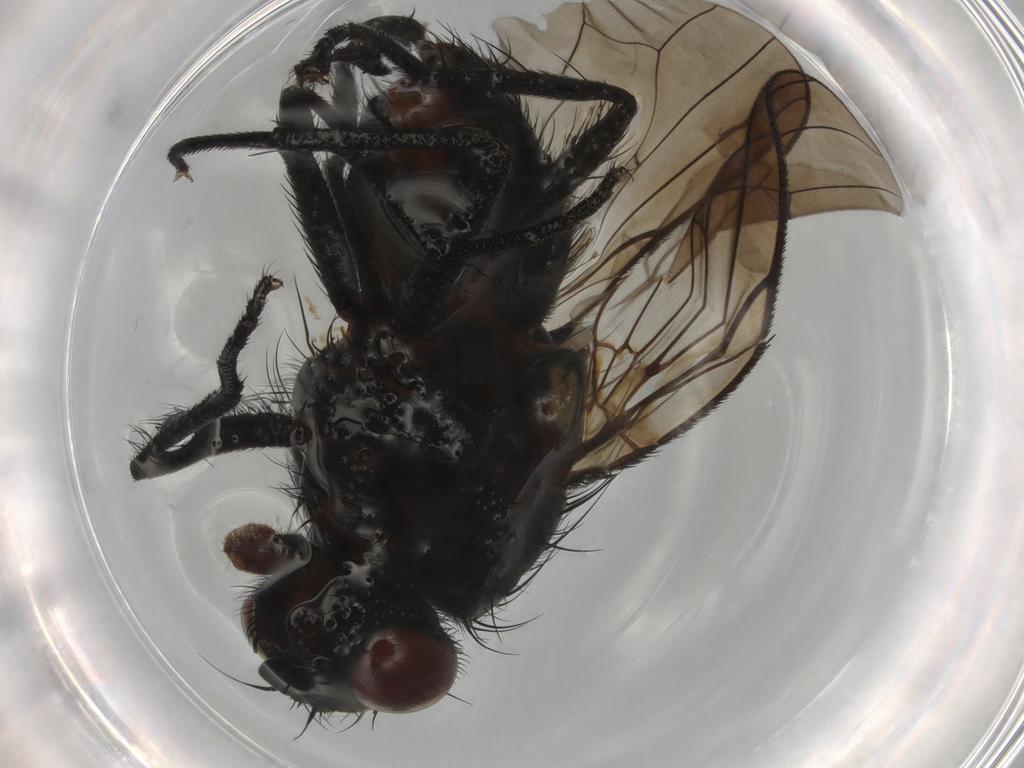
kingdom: Animalia
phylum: Arthropoda
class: Insecta
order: Diptera
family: Anthomyiidae
